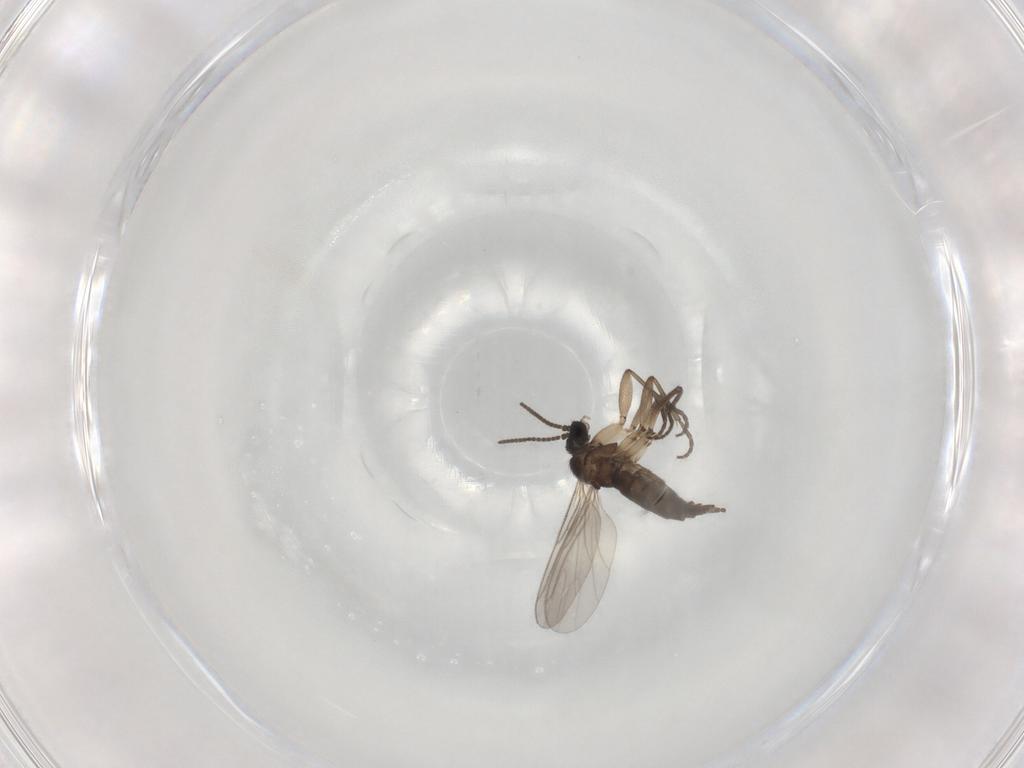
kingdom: Animalia
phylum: Arthropoda
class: Insecta
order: Diptera
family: Sciaridae
